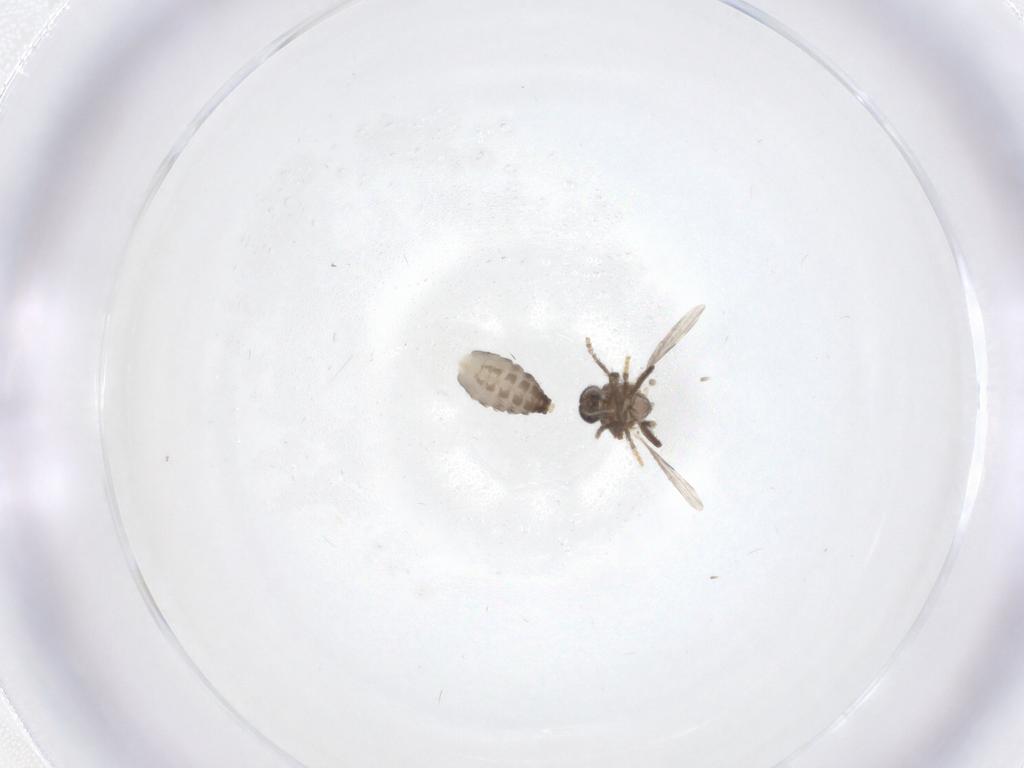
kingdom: Animalia
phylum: Arthropoda
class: Insecta
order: Diptera
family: Ceratopogonidae
